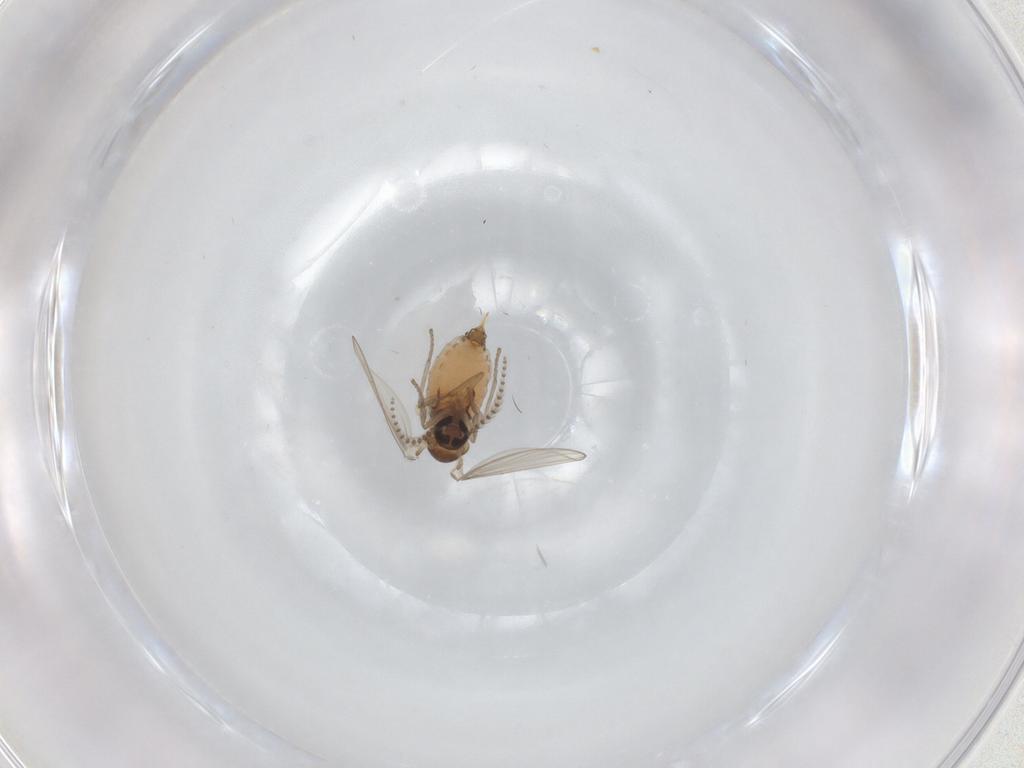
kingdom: Animalia
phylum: Arthropoda
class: Insecta
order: Diptera
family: Psychodidae
